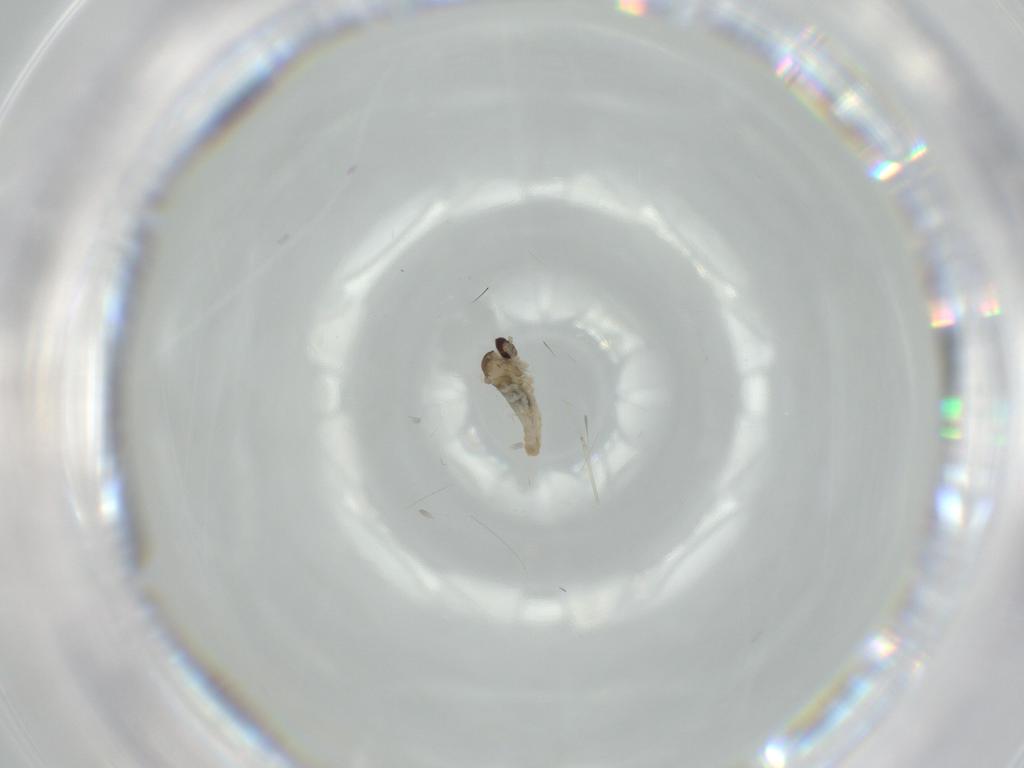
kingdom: Animalia
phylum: Arthropoda
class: Insecta
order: Diptera
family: Cecidomyiidae
